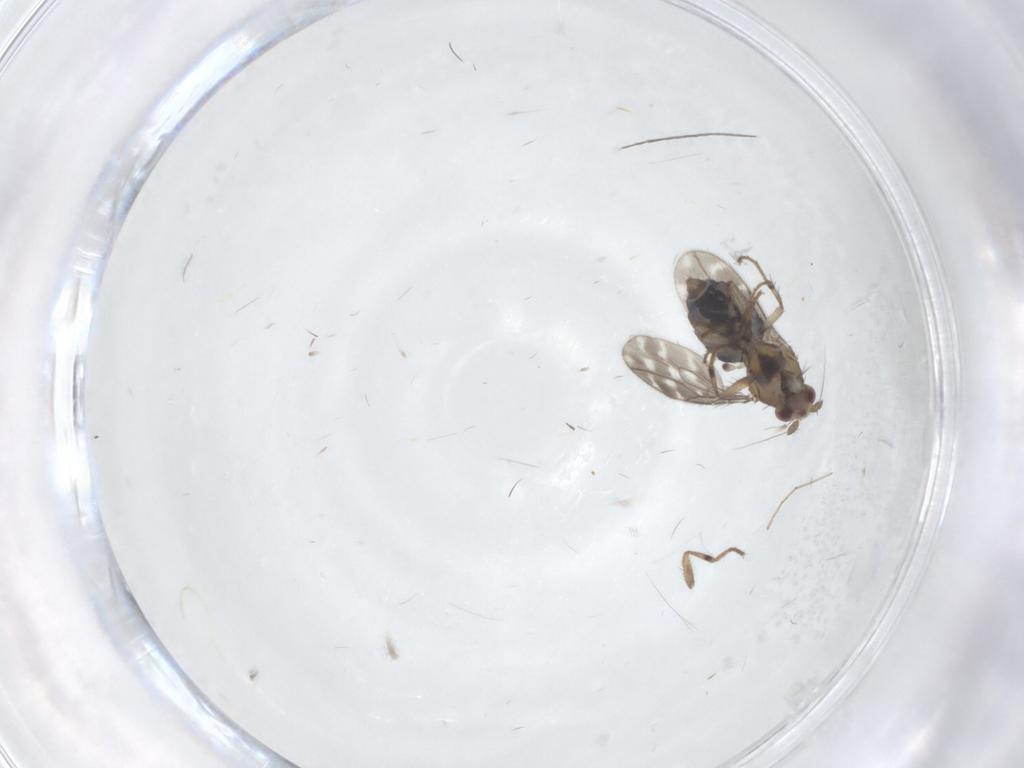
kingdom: Animalia
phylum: Arthropoda
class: Insecta
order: Diptera
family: Sphaeroceridae
